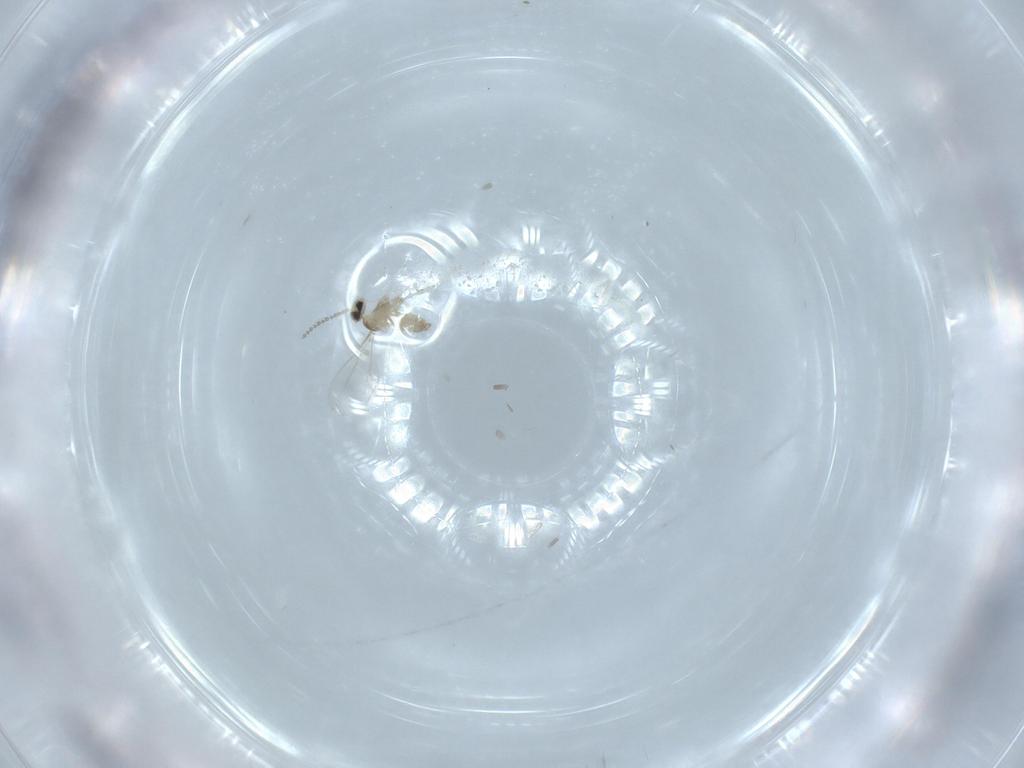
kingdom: Animalia
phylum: Arthropoda
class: Insecta
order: Diptera
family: Cecidomyiidae
